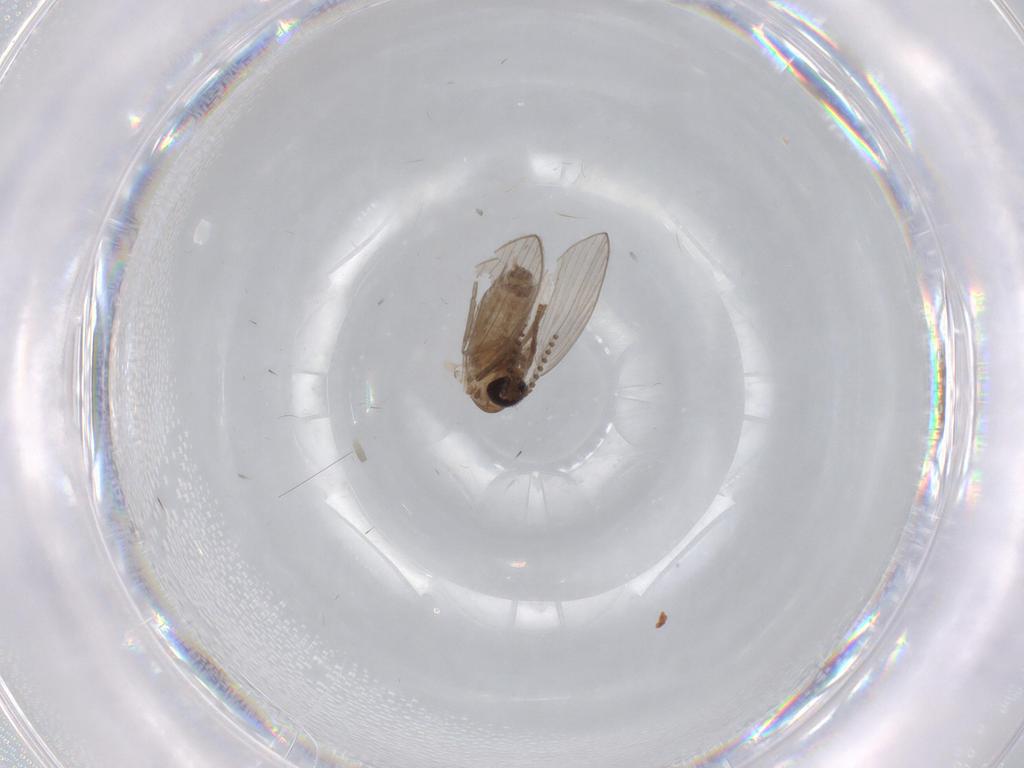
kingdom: Animalia
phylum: Arthropoda
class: Insecta
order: Diptera
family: Psychodidae
